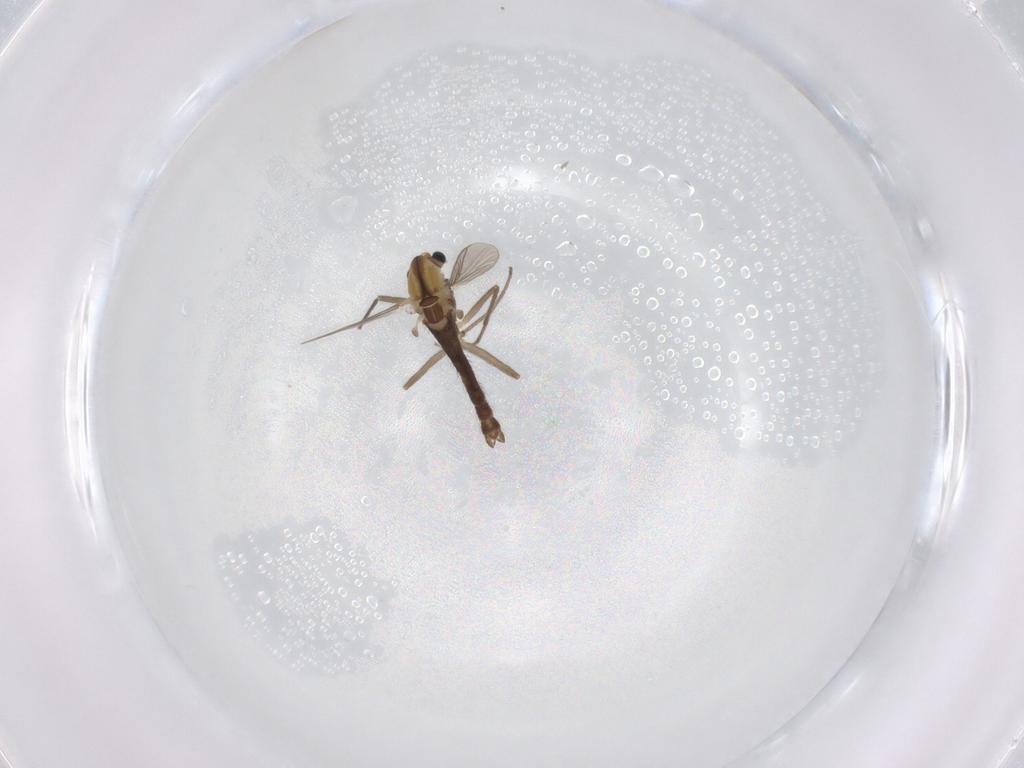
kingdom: Animalia
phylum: Arthropoda
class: Insecta
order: Diptera
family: Chironomidae
